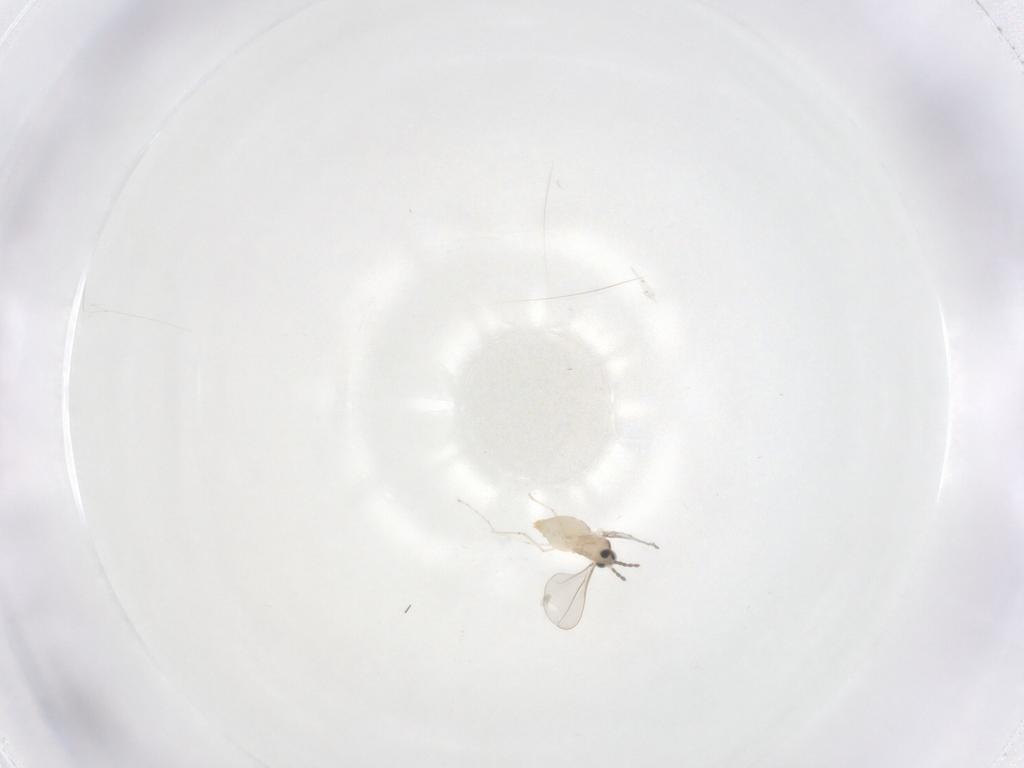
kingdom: Animalia
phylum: Arthropoda
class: Insecta
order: Diptera
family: Cecidomyiidae
